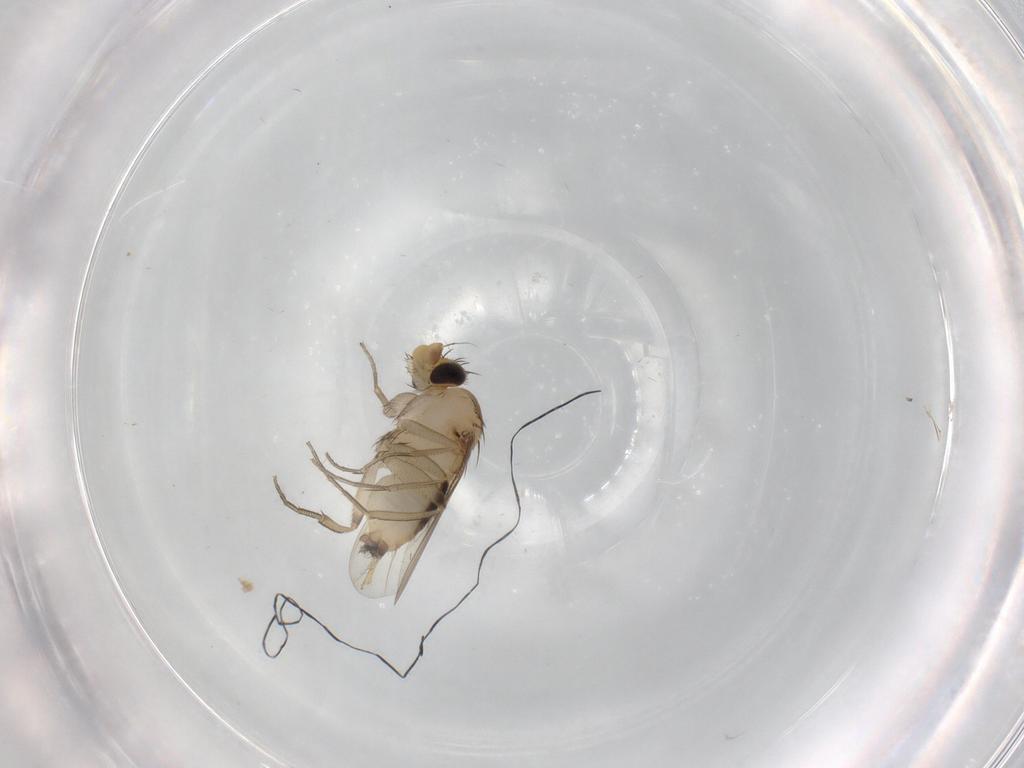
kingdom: Animalia
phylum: Arthropoda
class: Insecta
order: Diptera
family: Phoridae
